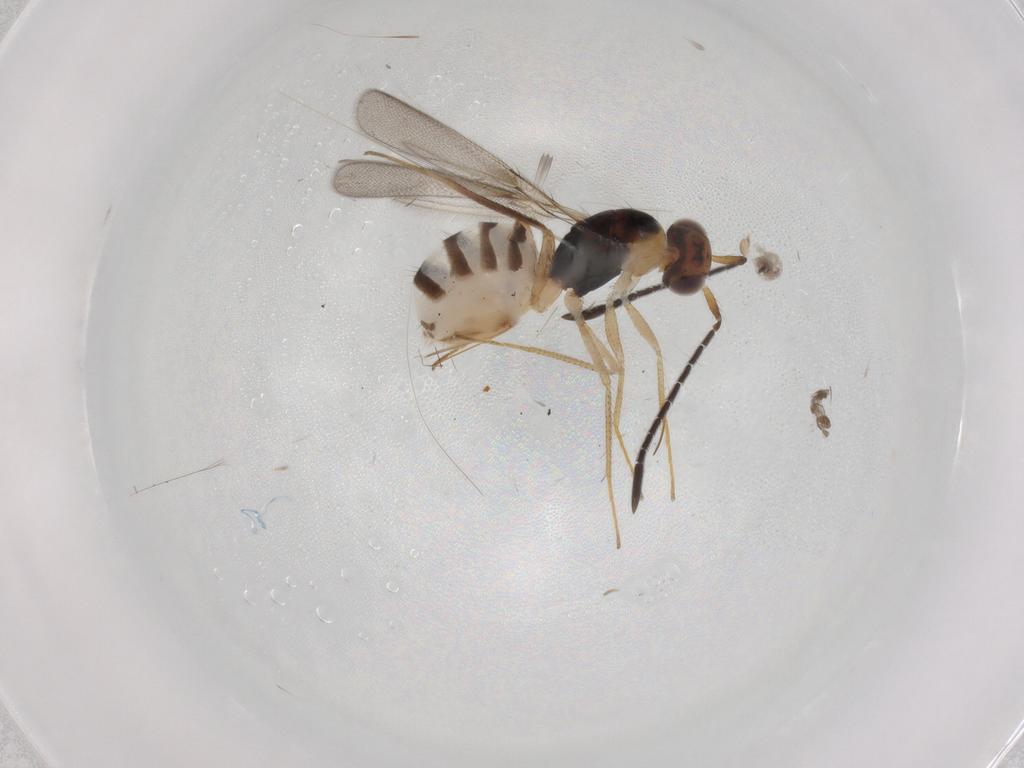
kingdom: Animalia
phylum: Arthropoda
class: Insecta
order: Hymenoptera
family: Mymaridae
